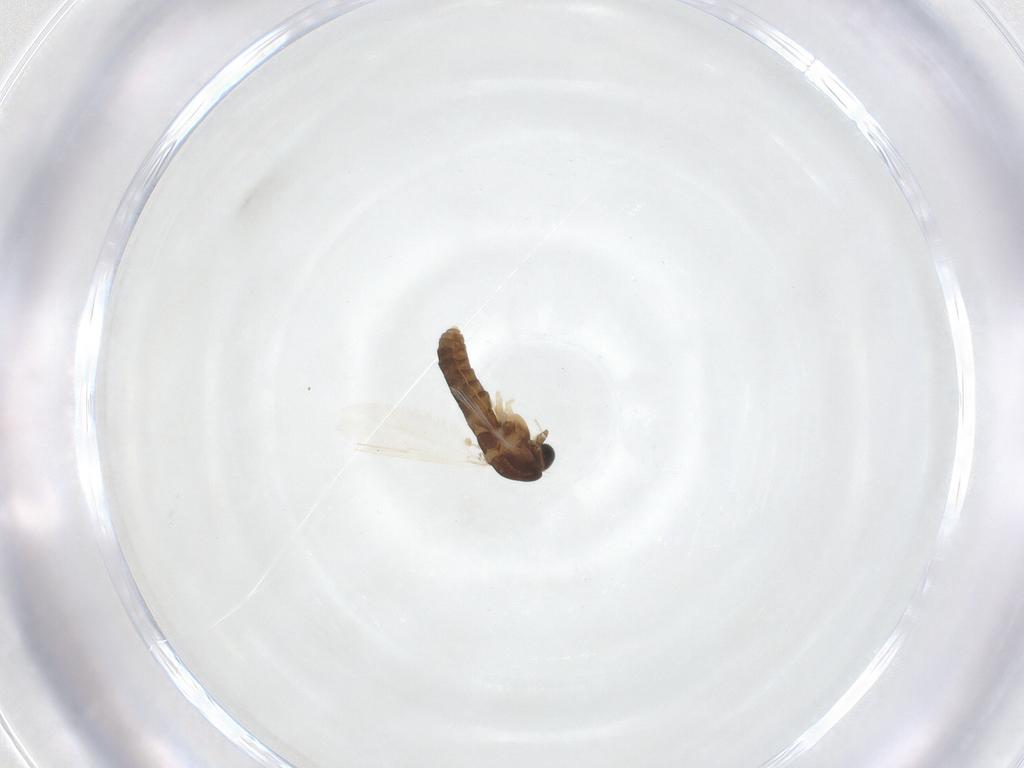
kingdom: Animalia
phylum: Arthropoda
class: Insecta
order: Diptera
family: Chironomidae
